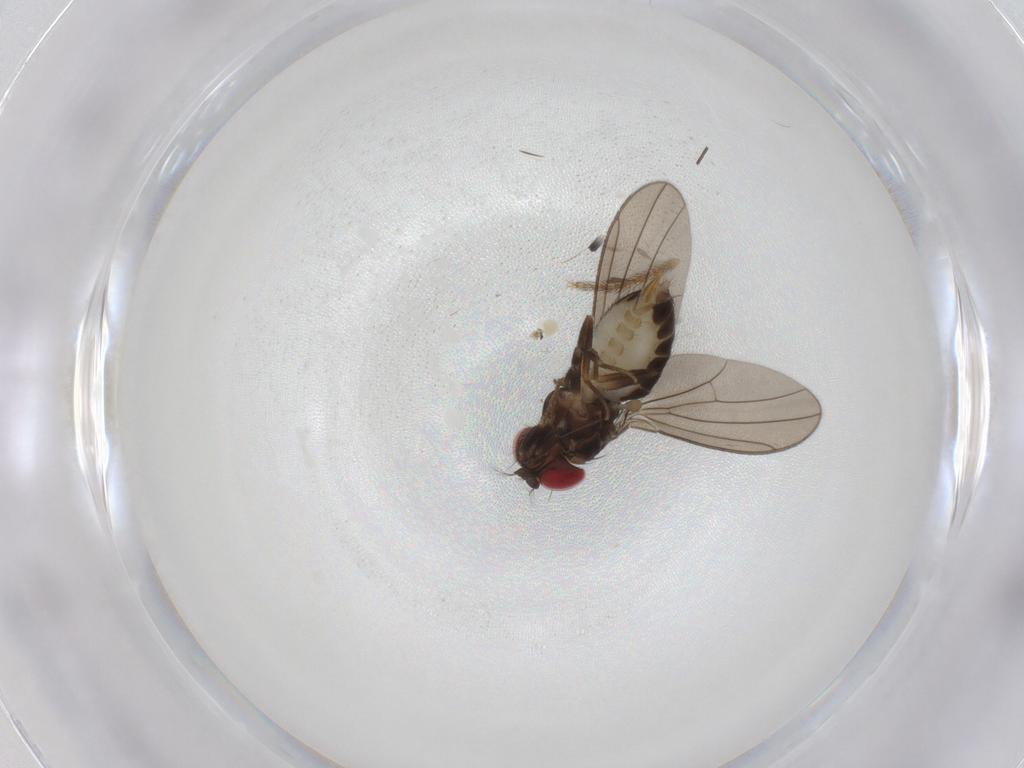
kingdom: Animalia
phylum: Arthropoda
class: Insecta
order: Diptera
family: Drosophilidae
